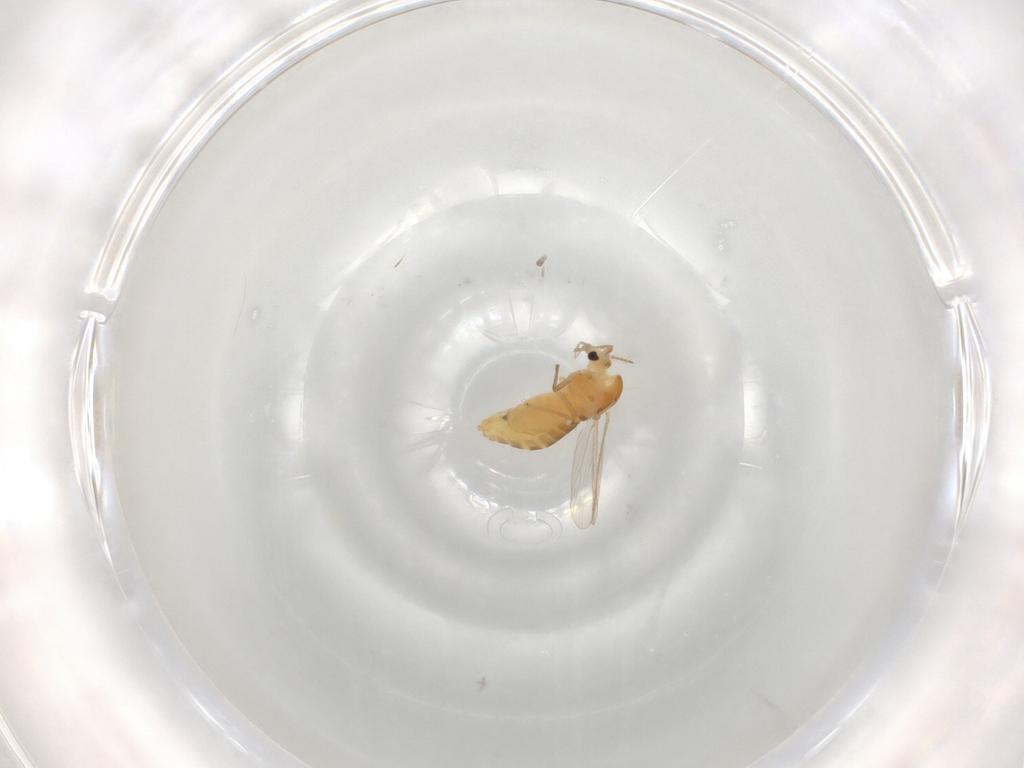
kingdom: Animalia
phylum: Arthropoda
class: Insecta
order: Diptera
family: Chironomidae
